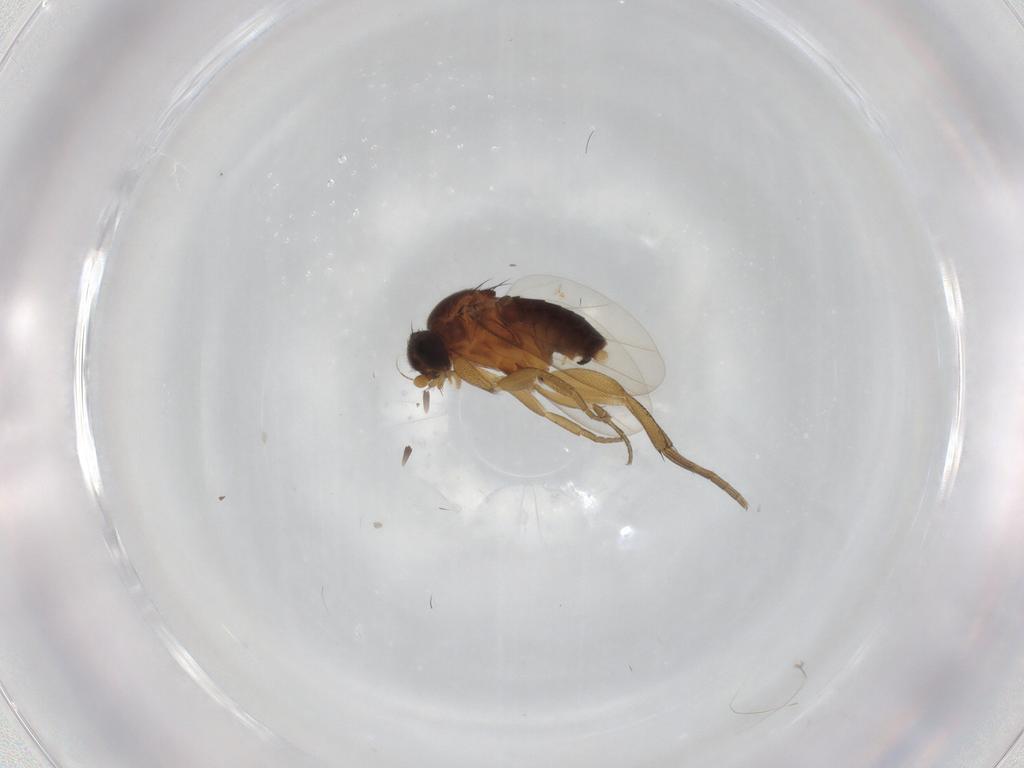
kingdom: Animalia
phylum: Arthropoda
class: Insecta
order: Diptera
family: Phoridae
